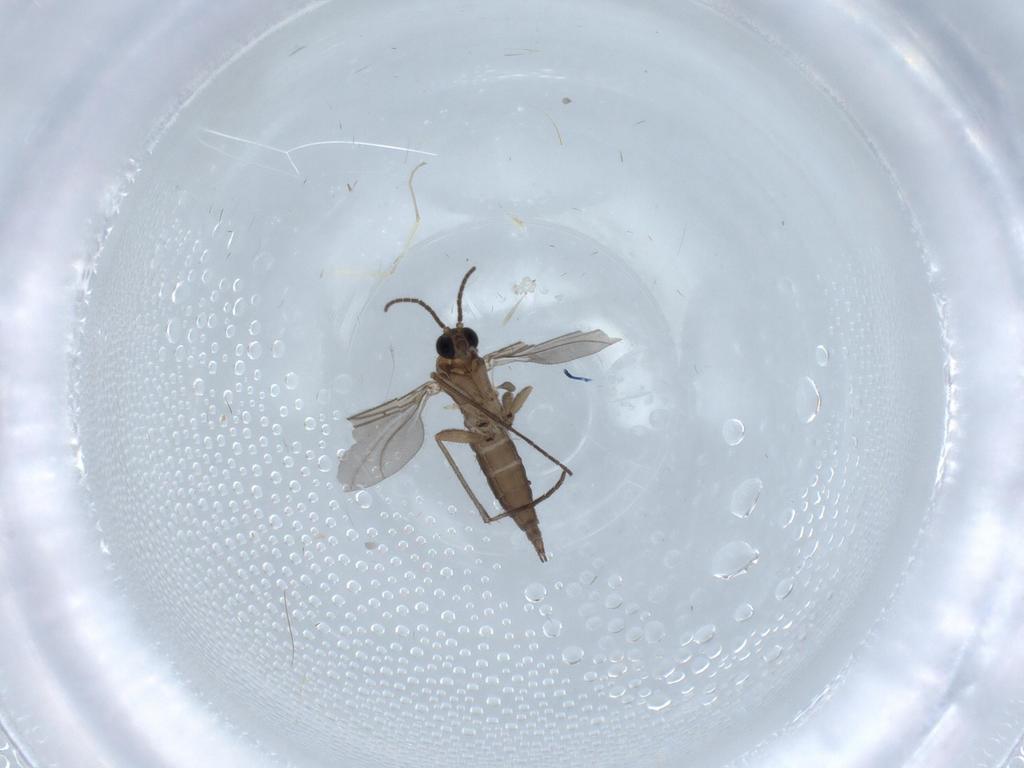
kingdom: Animalia
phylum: Arthropoda
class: Insecta
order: Diptera
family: Sciaridae
